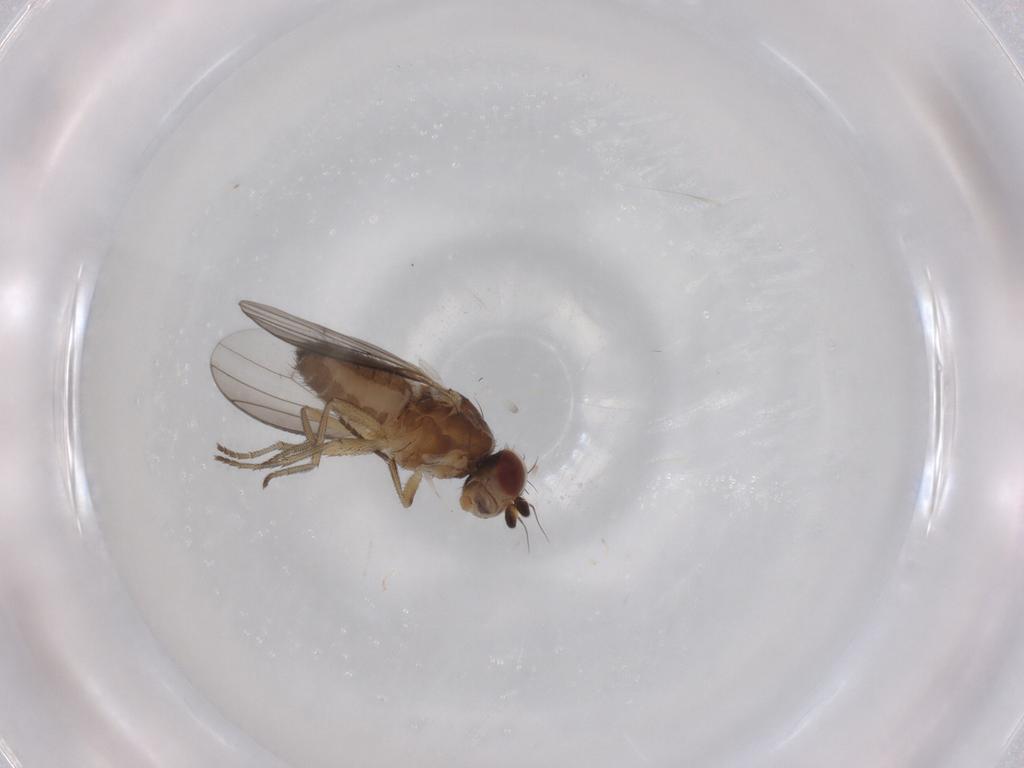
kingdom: Animalia
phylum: Arthropoda
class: Insecta
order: Diptera
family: Heleomyzidae
